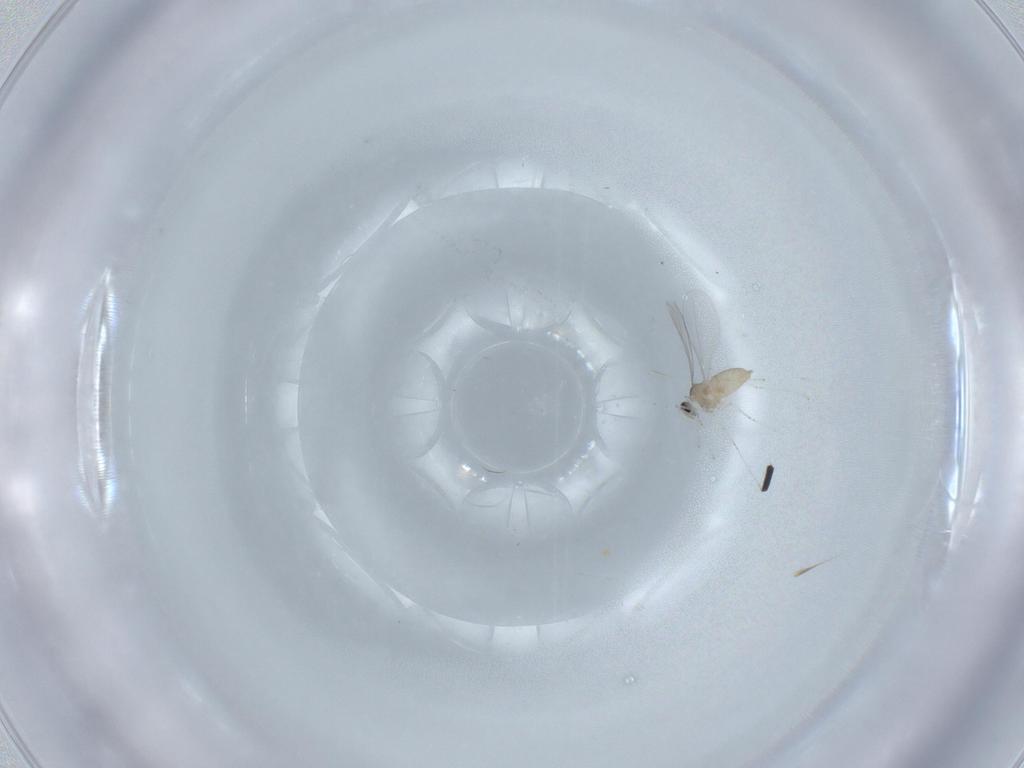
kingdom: Animalia
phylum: Arthropoda
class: Insecta
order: Diptera
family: Cecidomyiidae
